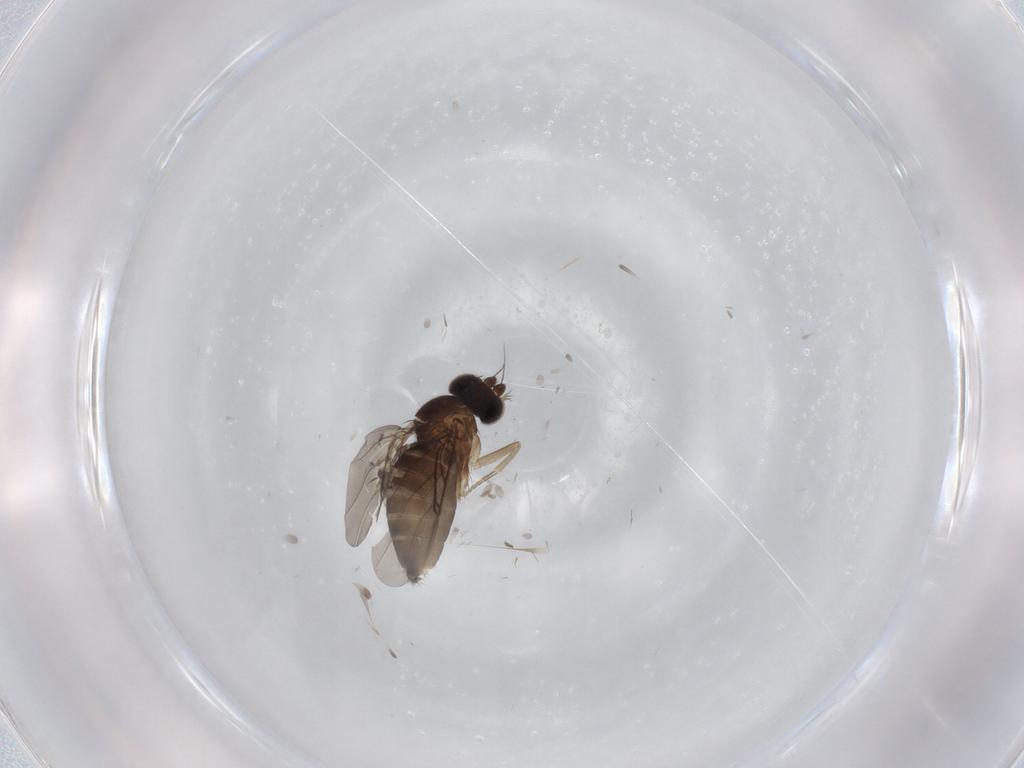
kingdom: Animalia
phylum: Arthropoda
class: Insecta
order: Diptera
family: Phoridae
